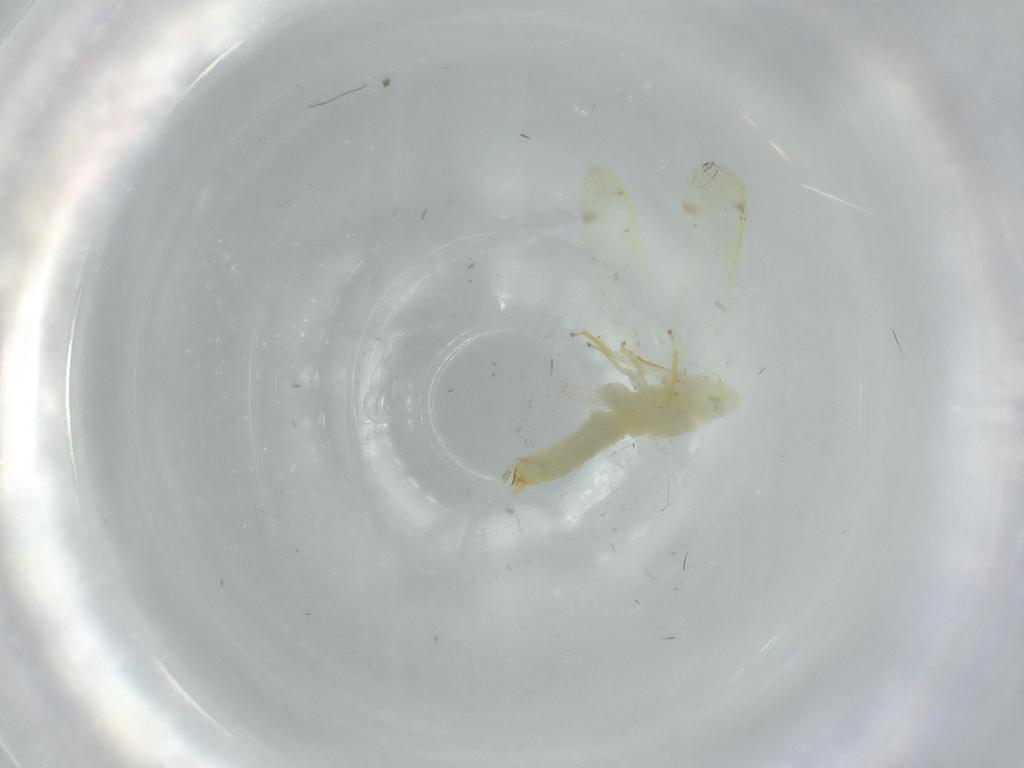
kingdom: Animalia
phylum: Arthropoda
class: Insecta
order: Hemiptera
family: Cicadellidae
